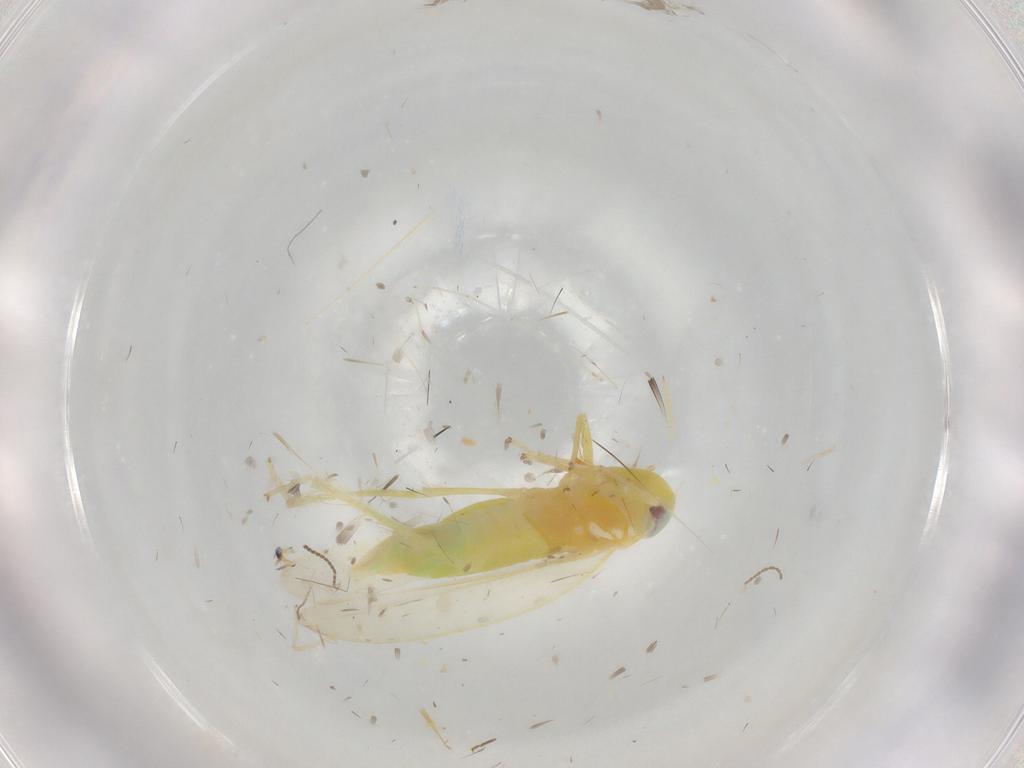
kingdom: Animalia
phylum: Arthropoda
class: Insecta
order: Hemiptera
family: Cicadellidae
